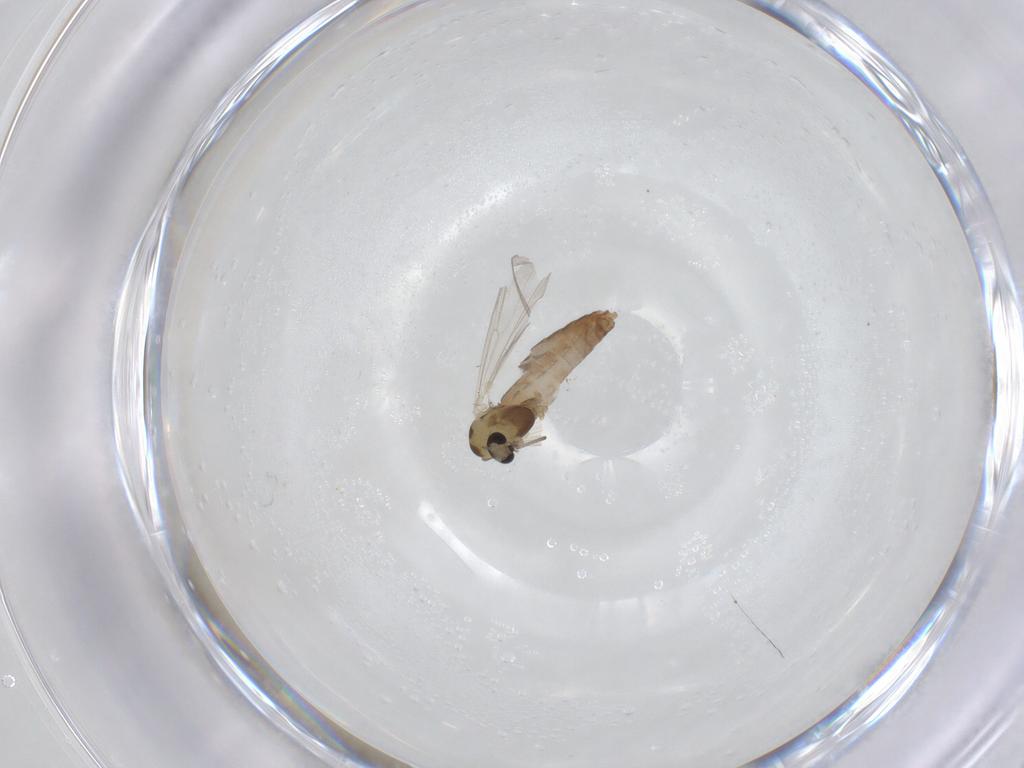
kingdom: Animalia
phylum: Arthropoda
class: Insecta
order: Diptera
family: Chironomidae
